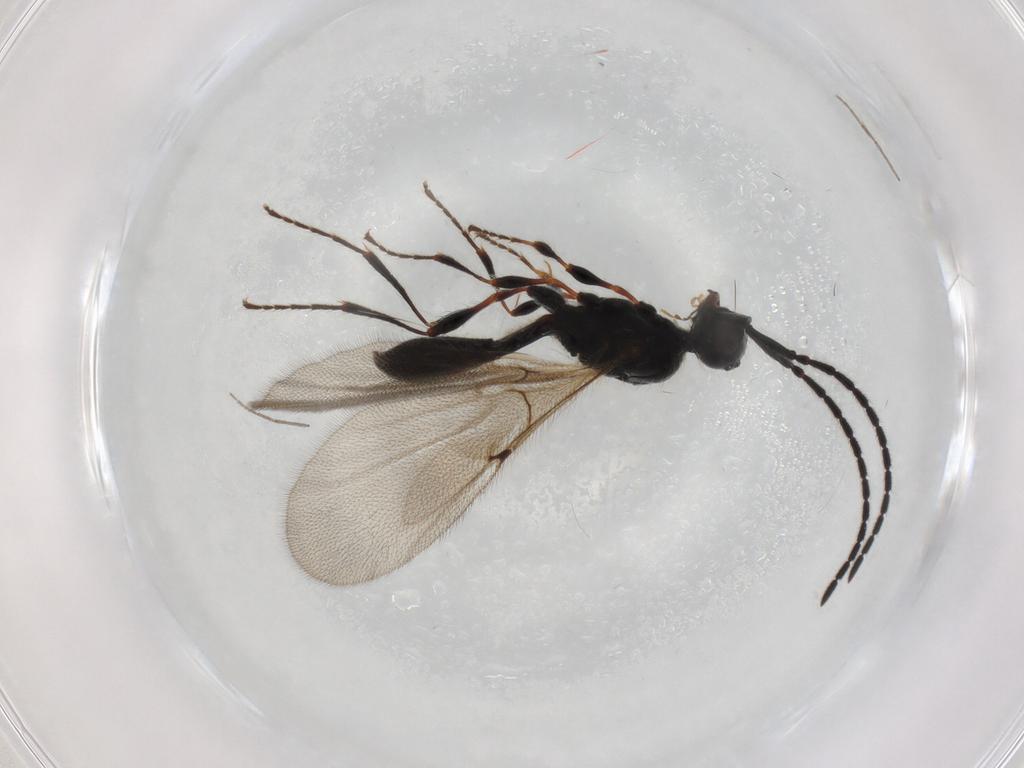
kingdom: Animalia
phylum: Arthropoda
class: Insecta
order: Hymenoptera
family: Diapriidae
